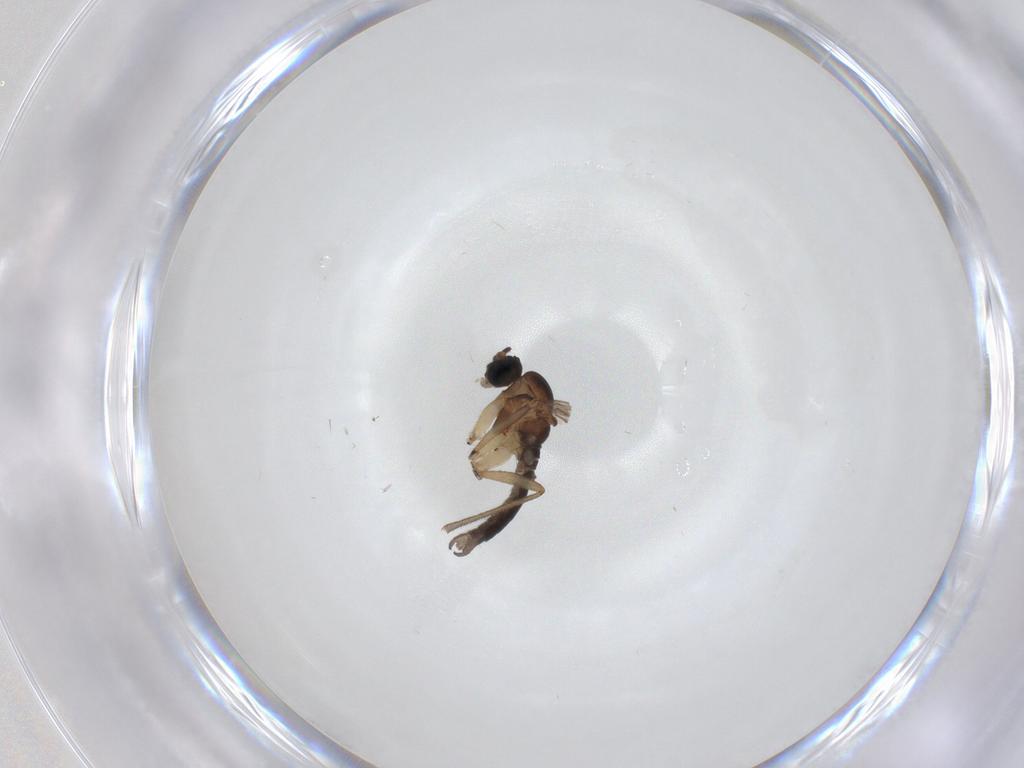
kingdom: Animalia
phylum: Arthropoda
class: Insecta
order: Diptera
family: Sciaridae
